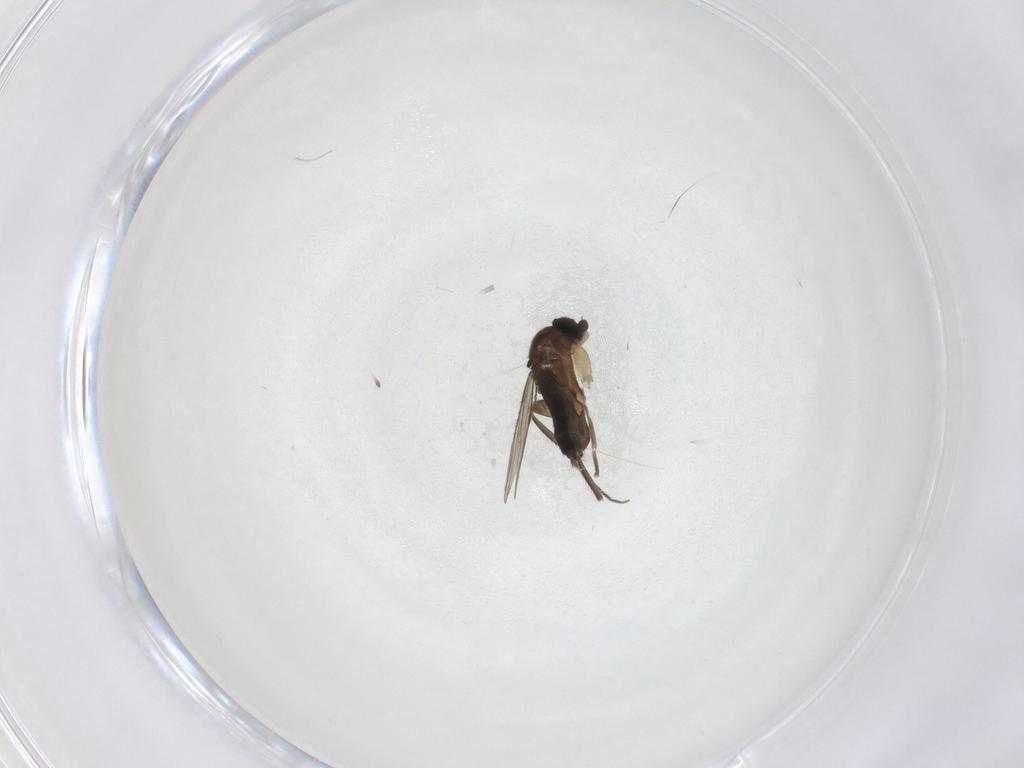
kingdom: Animalia
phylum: Arthropoda
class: Insecta
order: Diptera
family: Phoridae
